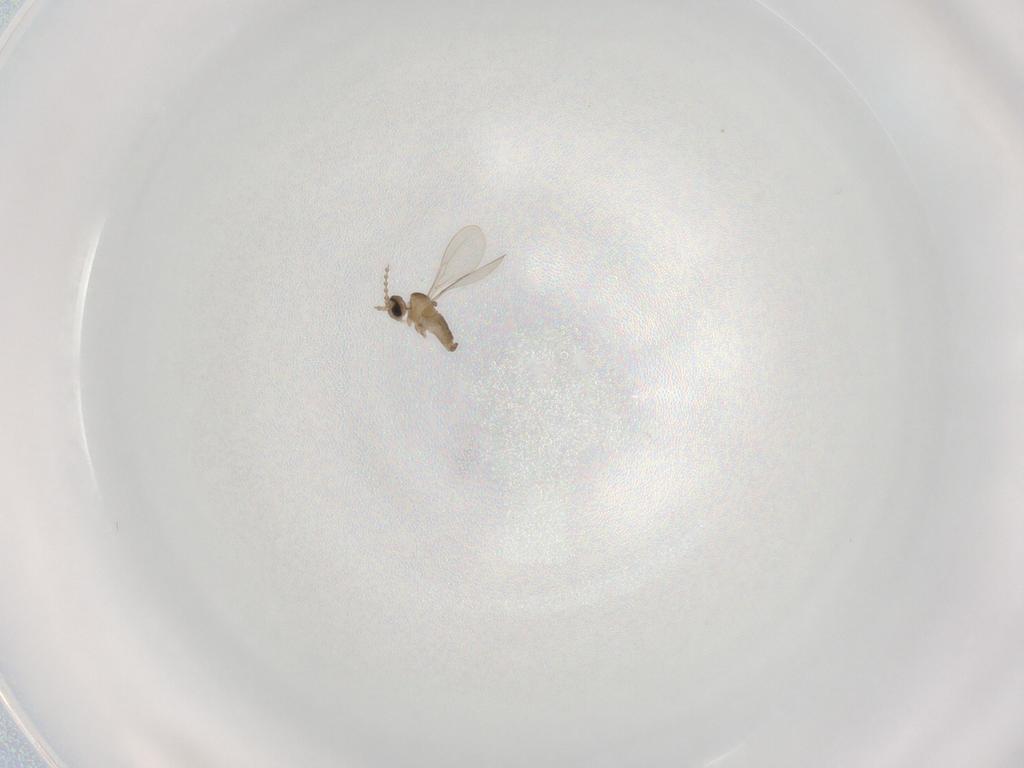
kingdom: Animalia
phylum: Arthropoda
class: Insecta
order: Diptera
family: Cecidomyiidae
